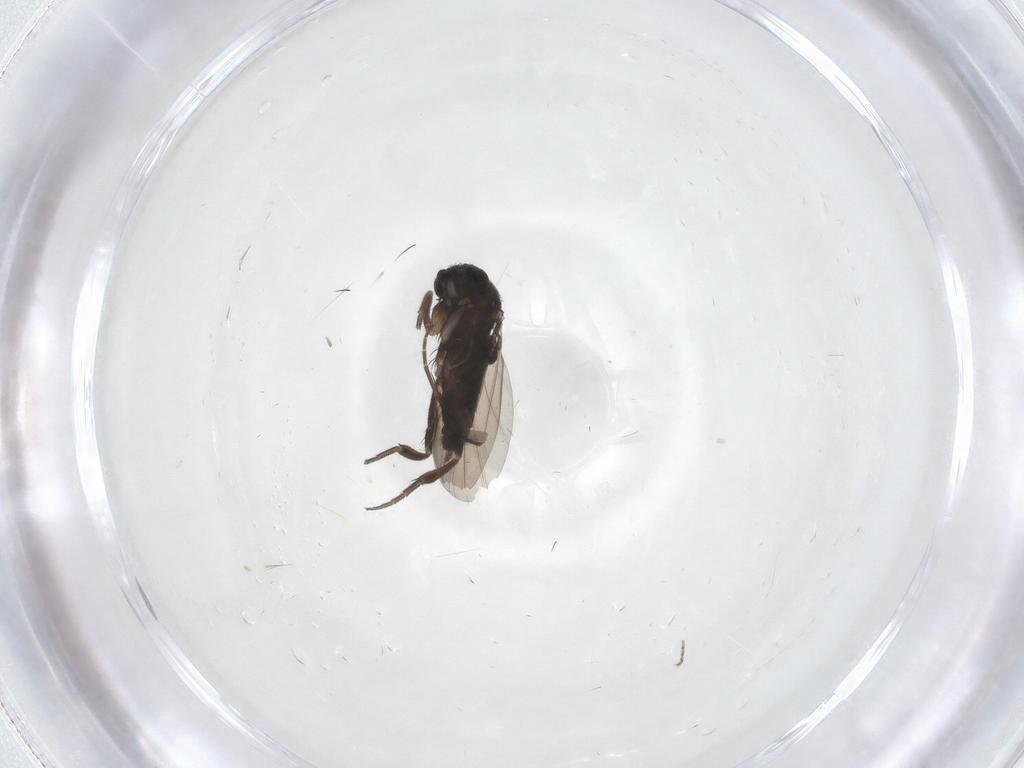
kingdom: Animalia
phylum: Arthropoda
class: Insecta
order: Diptera
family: Phoridae
